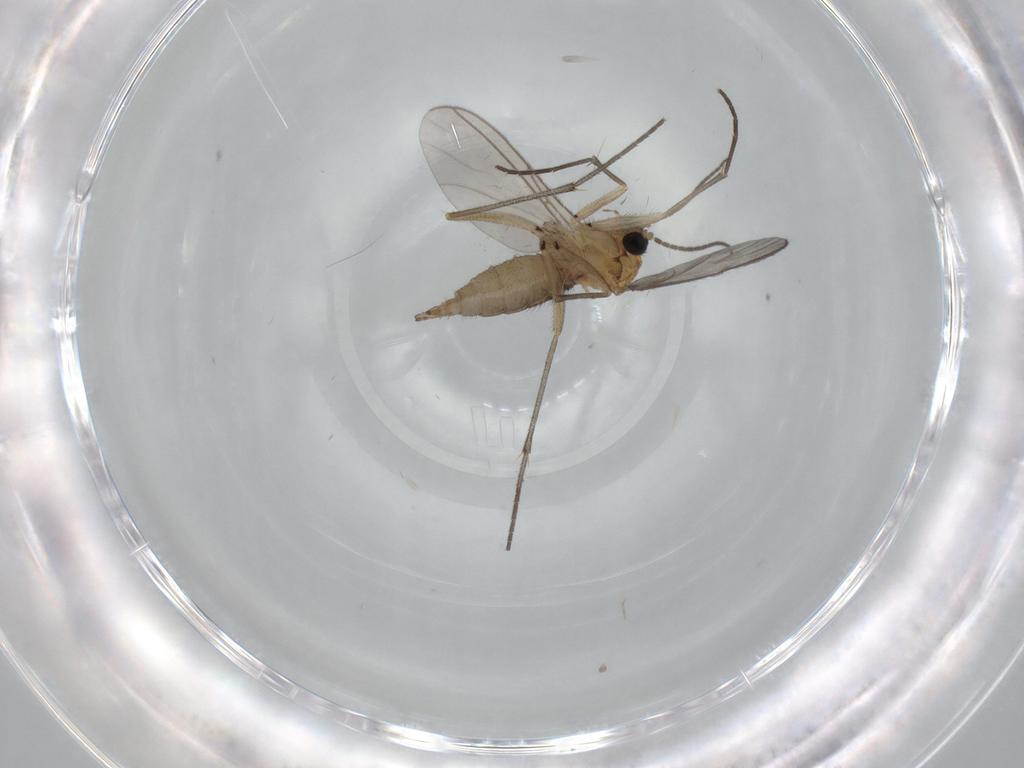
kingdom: Animalia
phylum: Arthropoda
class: Insecta
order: Diptera
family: Sciaridae
